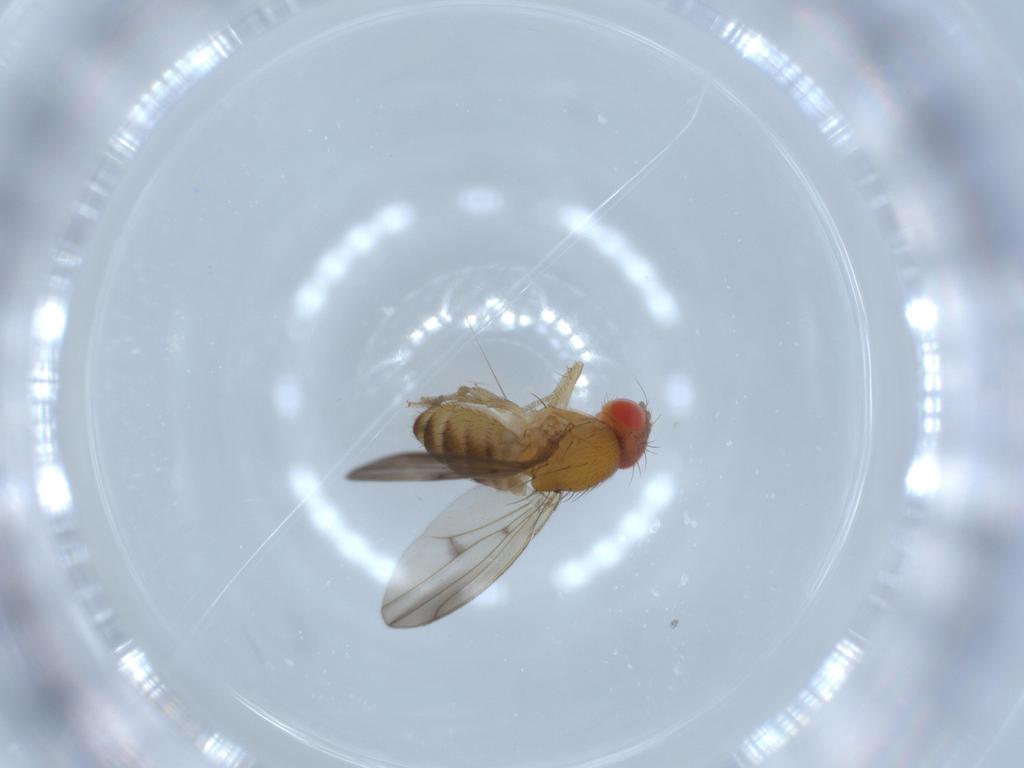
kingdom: Animalia
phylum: Arthropoda
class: Insecta
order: Diptera
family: Drosophilidae
